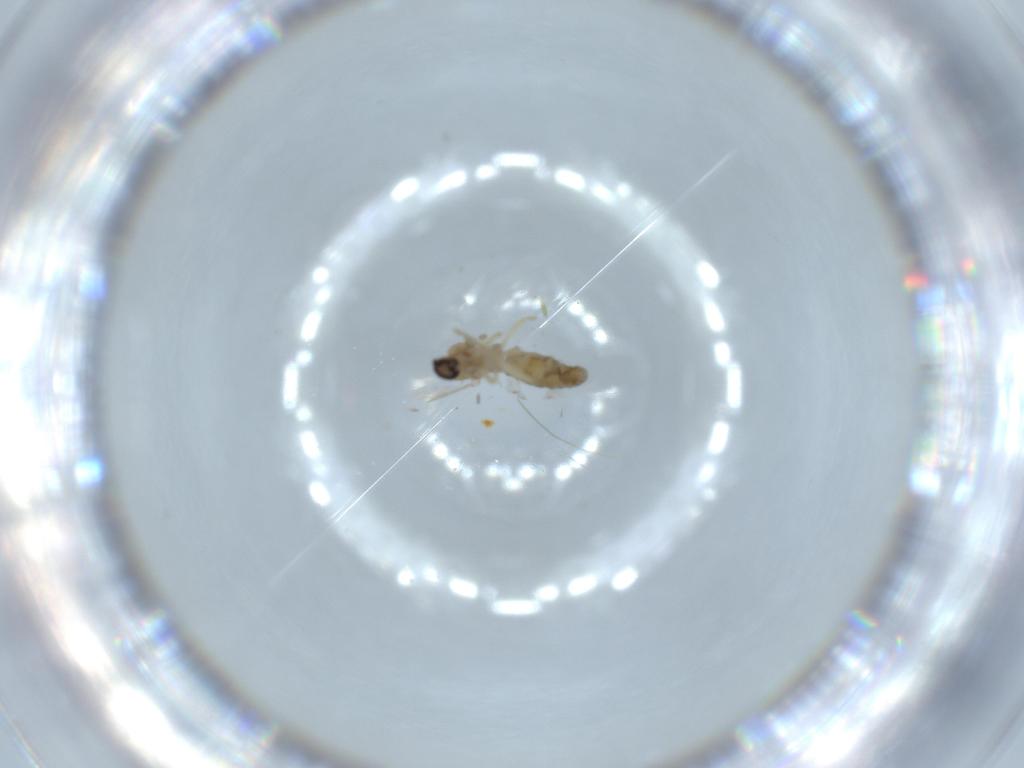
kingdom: Animalia
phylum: Arthropoda
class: Insecta
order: Diptera
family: Ceratopogonidae
